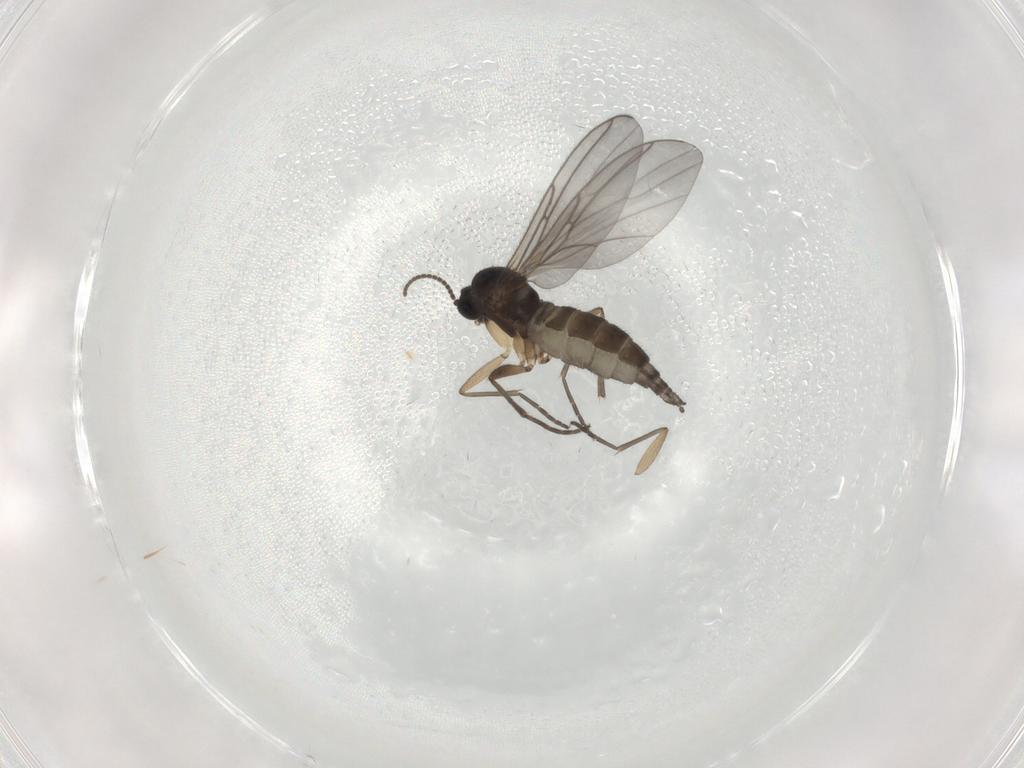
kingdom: Animalia
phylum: Arthropoda
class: Insecta
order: Diptera
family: Sciaridae
